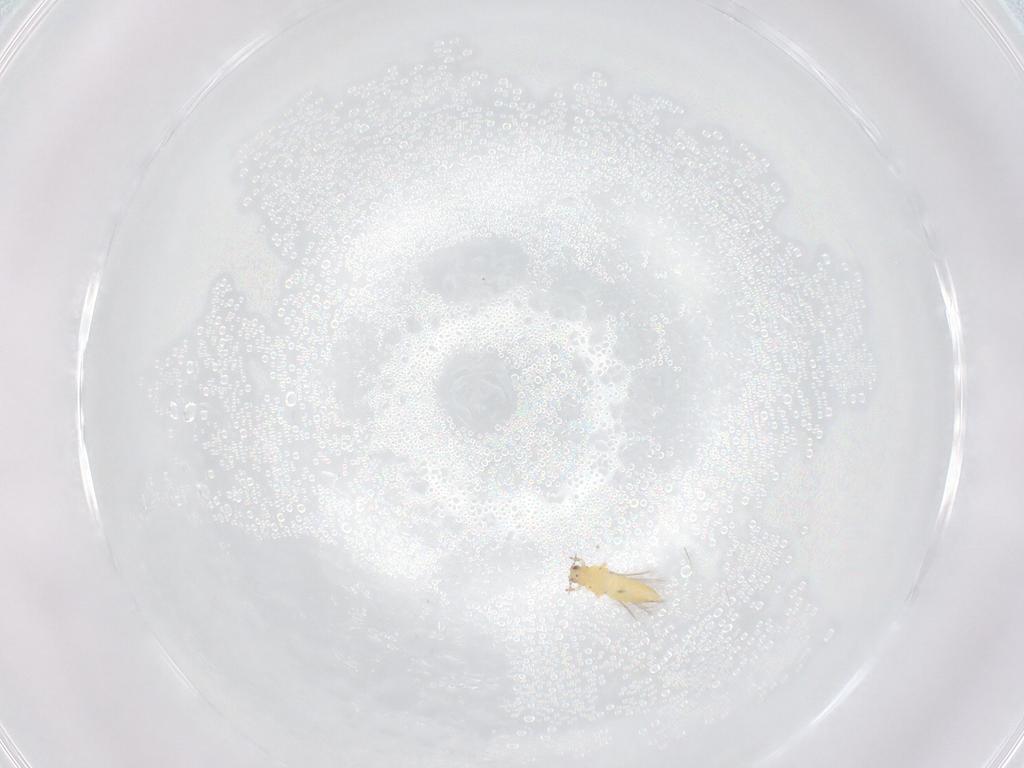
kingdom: Animalia
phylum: Arthropoda
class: Insecta
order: Thysanoptera
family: Thripidae
